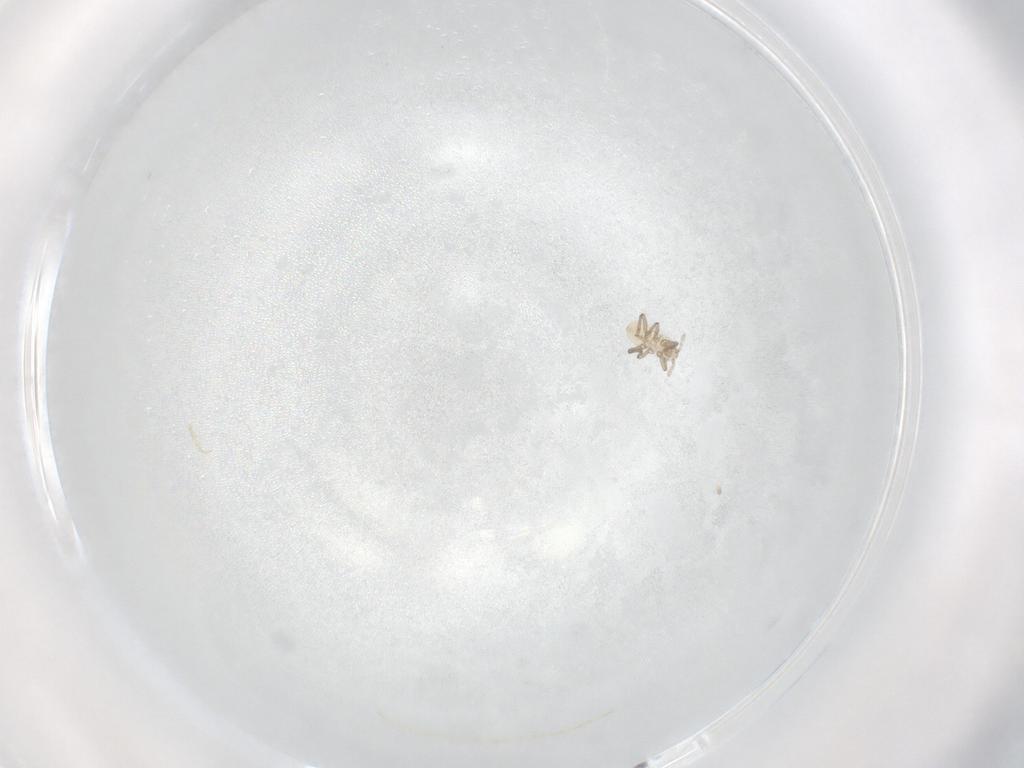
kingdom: Animalia
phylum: Arthropoda
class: Insecta
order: Hemiptera
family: Aphididae
